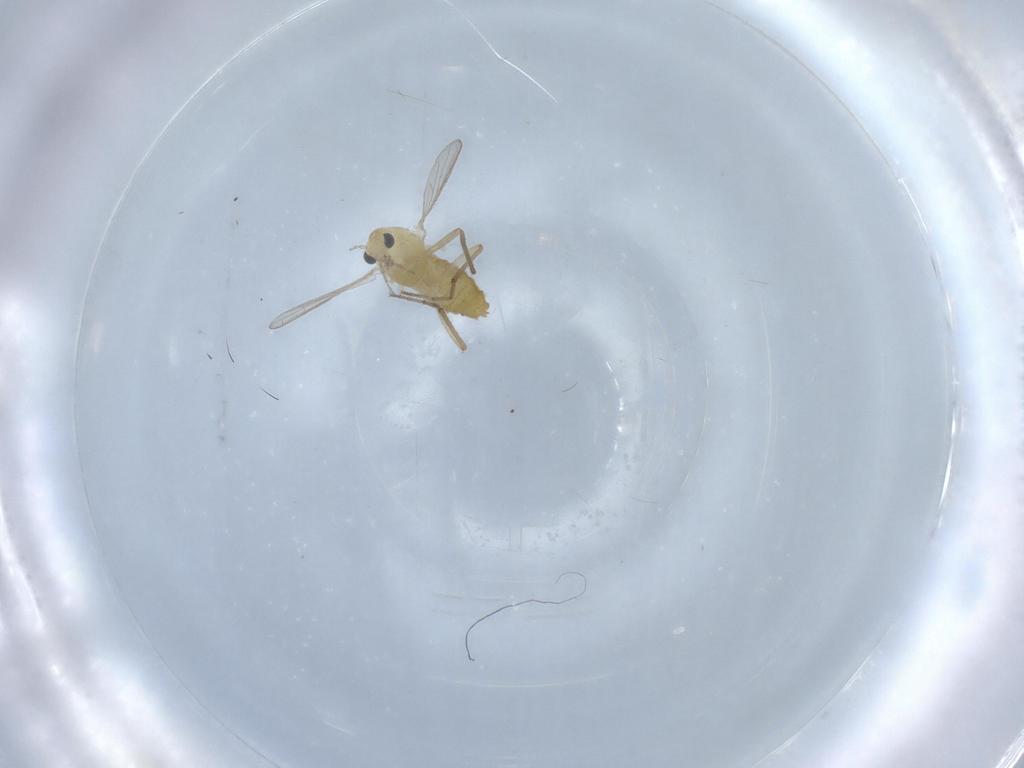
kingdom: Animalia
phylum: Arthropoda
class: Insecta
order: Diptera
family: Chironomidae
